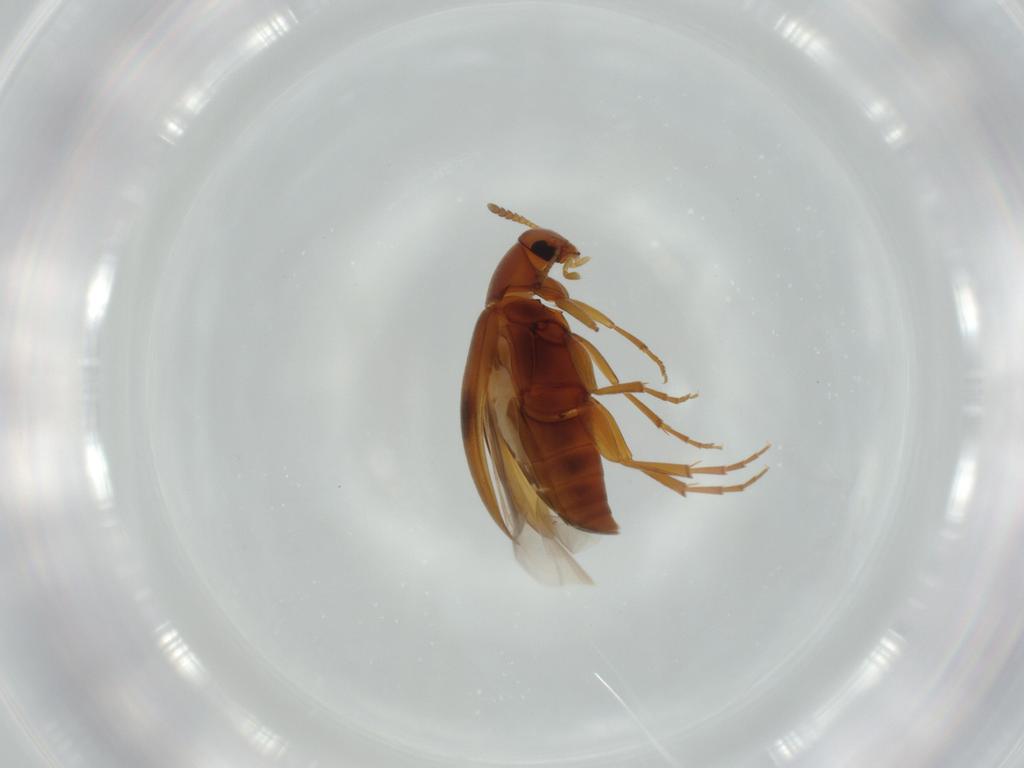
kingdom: Animalia
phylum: Arthropoda
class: Insecta
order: Coleoptera
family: Scraptiidae
